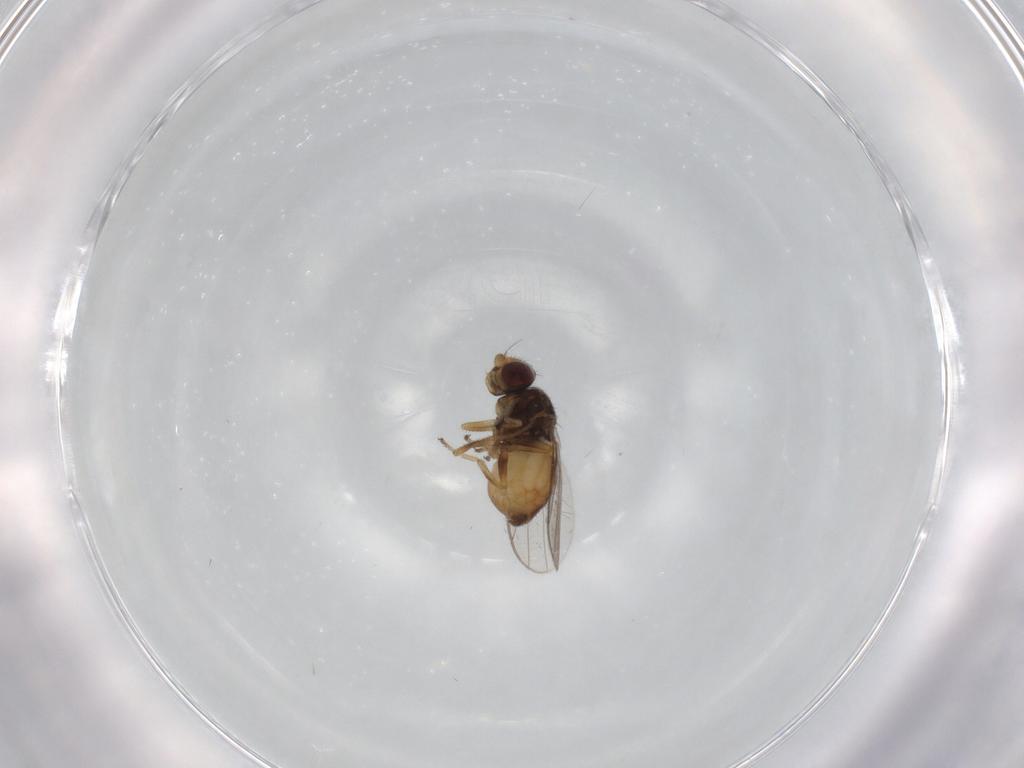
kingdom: Animalia
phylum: Arthropoda
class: Insecta
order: Diptera
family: Chloropidae
